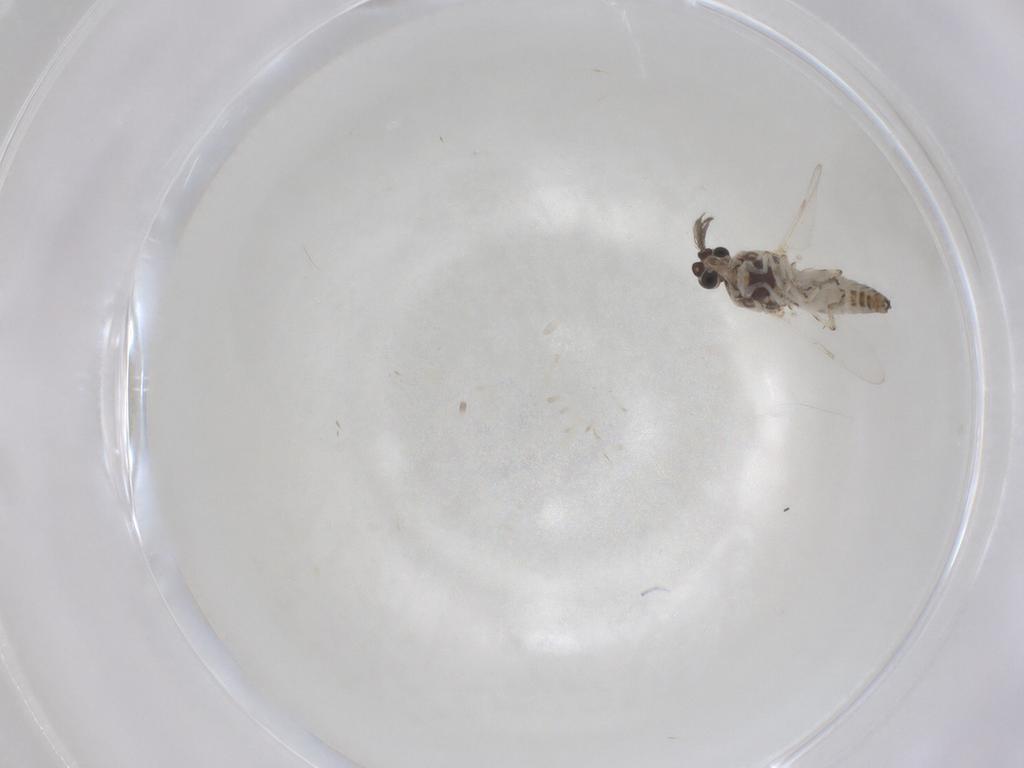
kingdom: Animalia
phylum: Arthropoda
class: Insecta
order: Diptera
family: Ceratopogonidae
